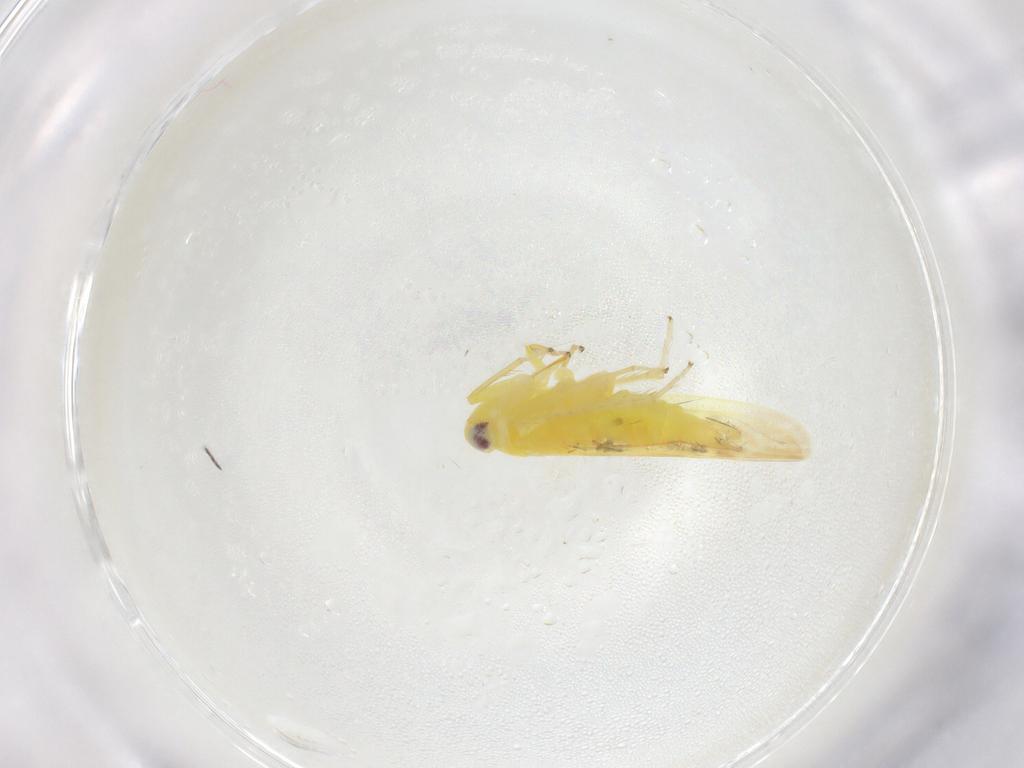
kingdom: Animalia
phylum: Arthropoda
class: Insecta
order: Hemiptera
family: Cicadellidae
